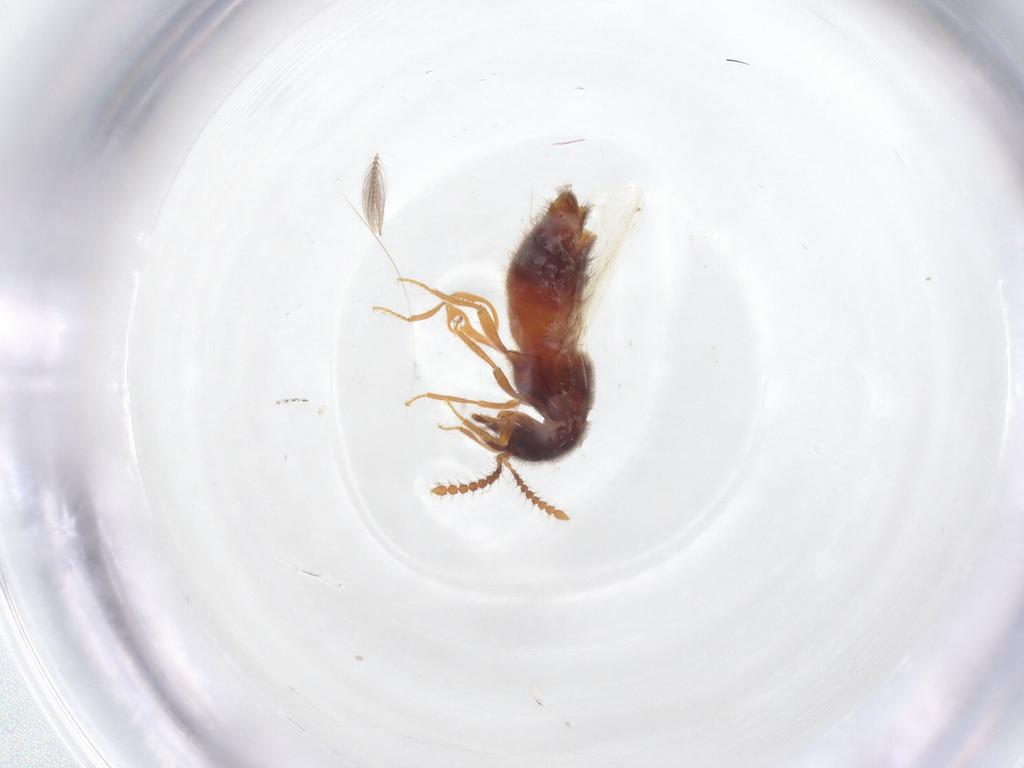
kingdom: Animalia
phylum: Arthropoda
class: Insecta
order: Coleoptera
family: Staphylinidae
